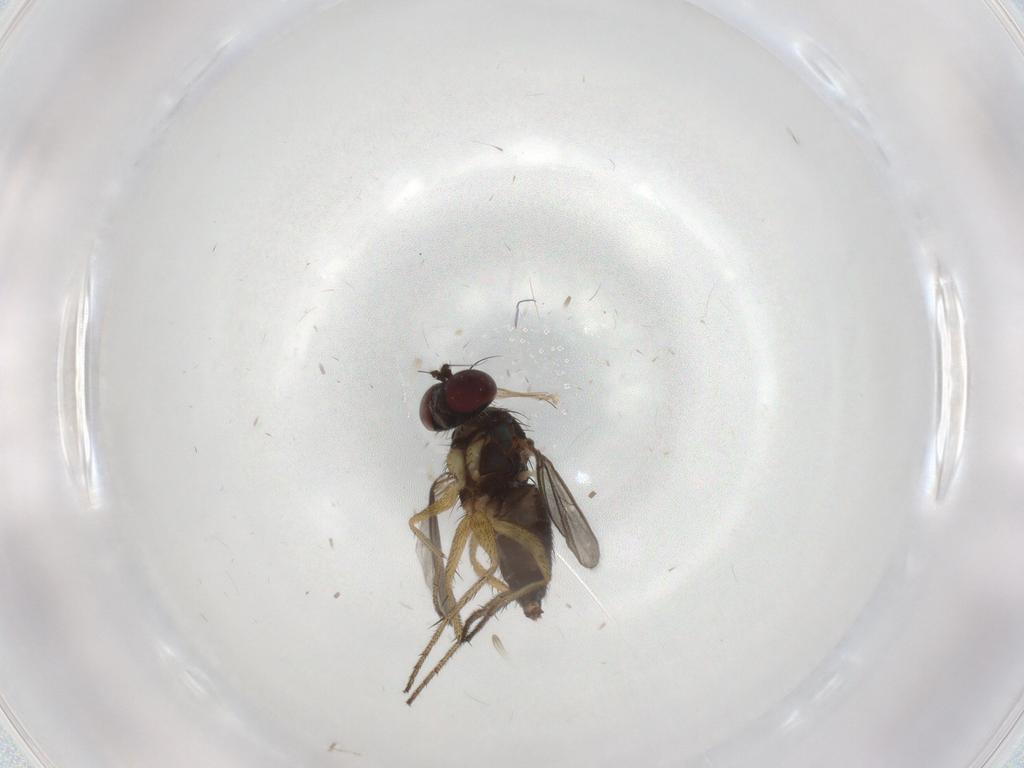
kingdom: Animalia
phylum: Arthropoda
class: Insecta
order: Diptera
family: Dolichopodidae
